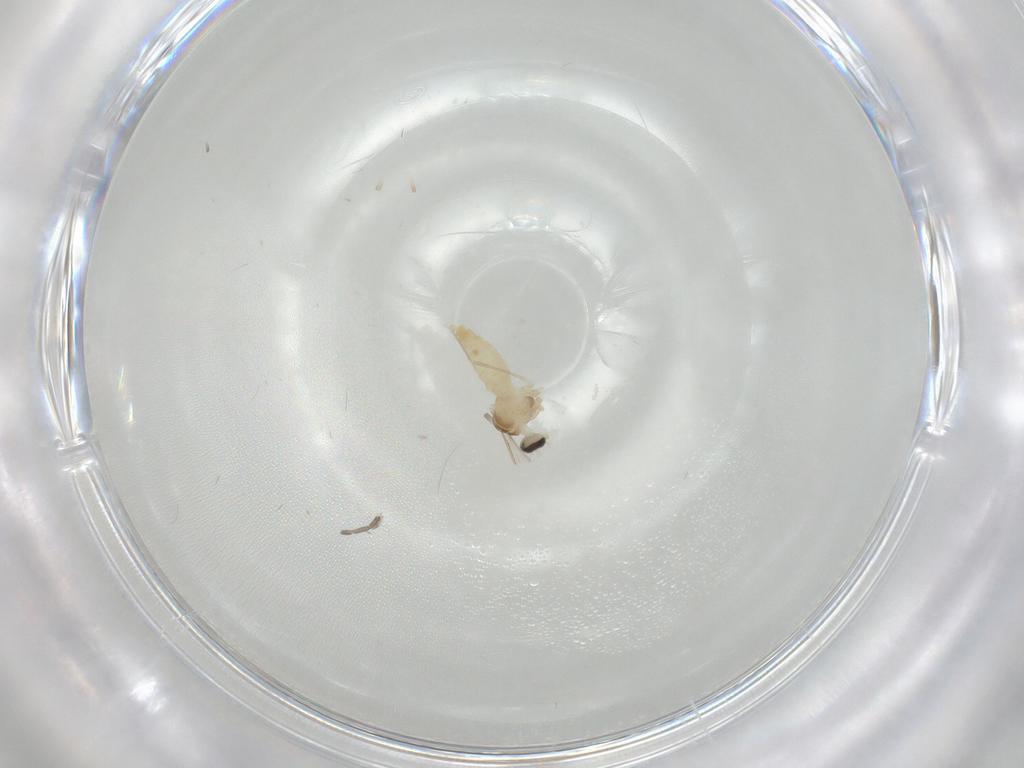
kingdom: Animalia
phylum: Arthropoda
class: Insecta
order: Diptera
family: Cecidomyiidae
